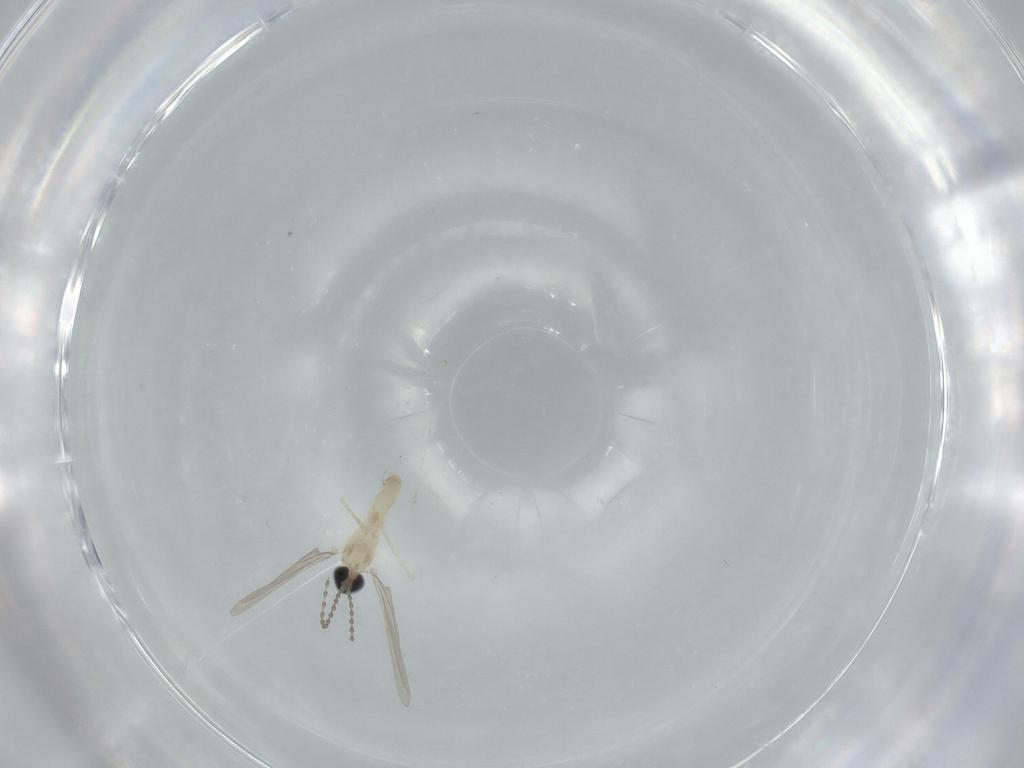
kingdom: Animalia
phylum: Arthropoda
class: Insecta
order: Diptera
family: Cecidomyiidae
